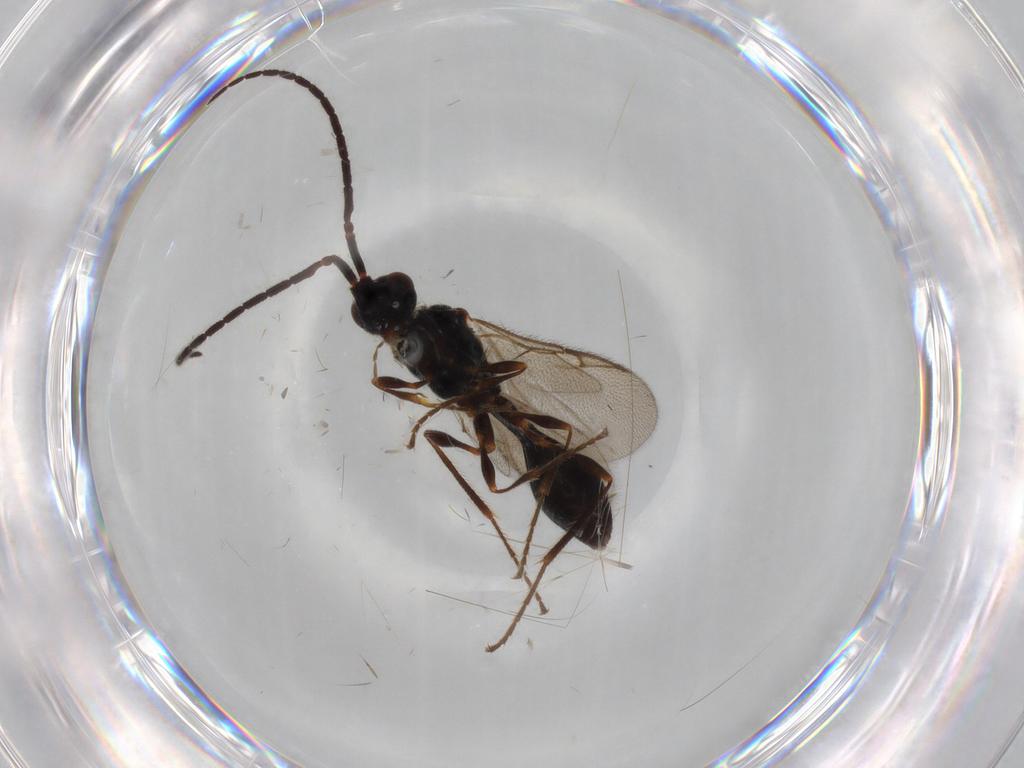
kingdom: Animalia
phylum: Arthropoda
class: Insecta
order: Hymenoptera
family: Diapriidae
